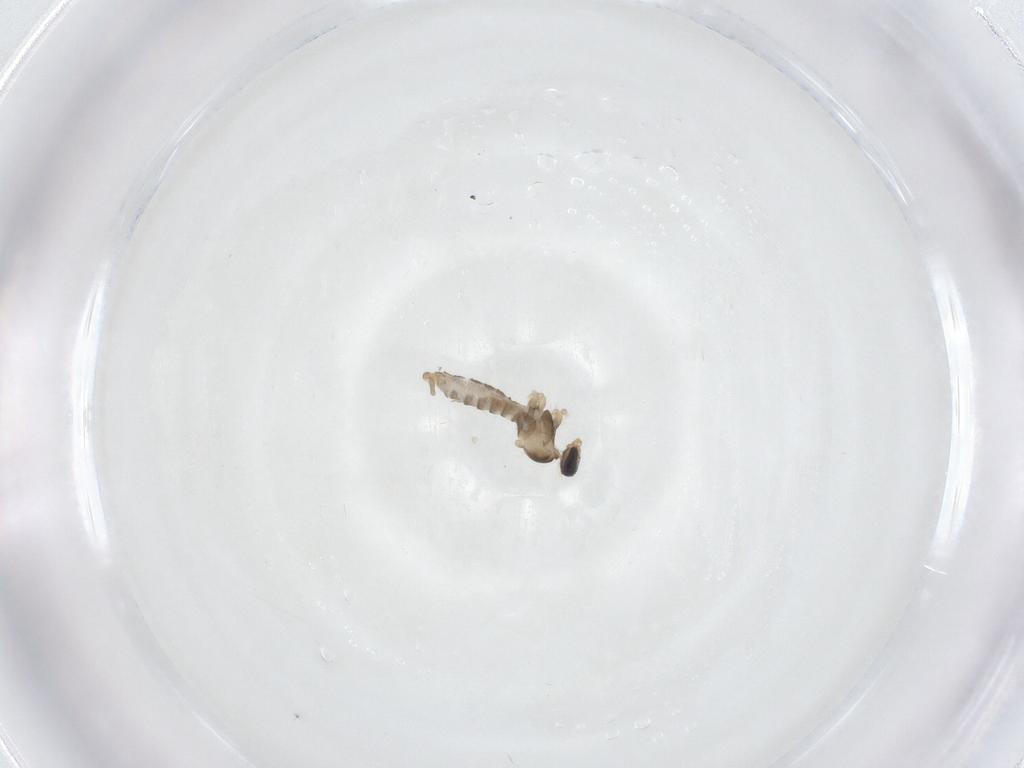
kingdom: Animalia
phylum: Arthropoda
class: Insecta
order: Diptera
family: Cecidomyiidae
